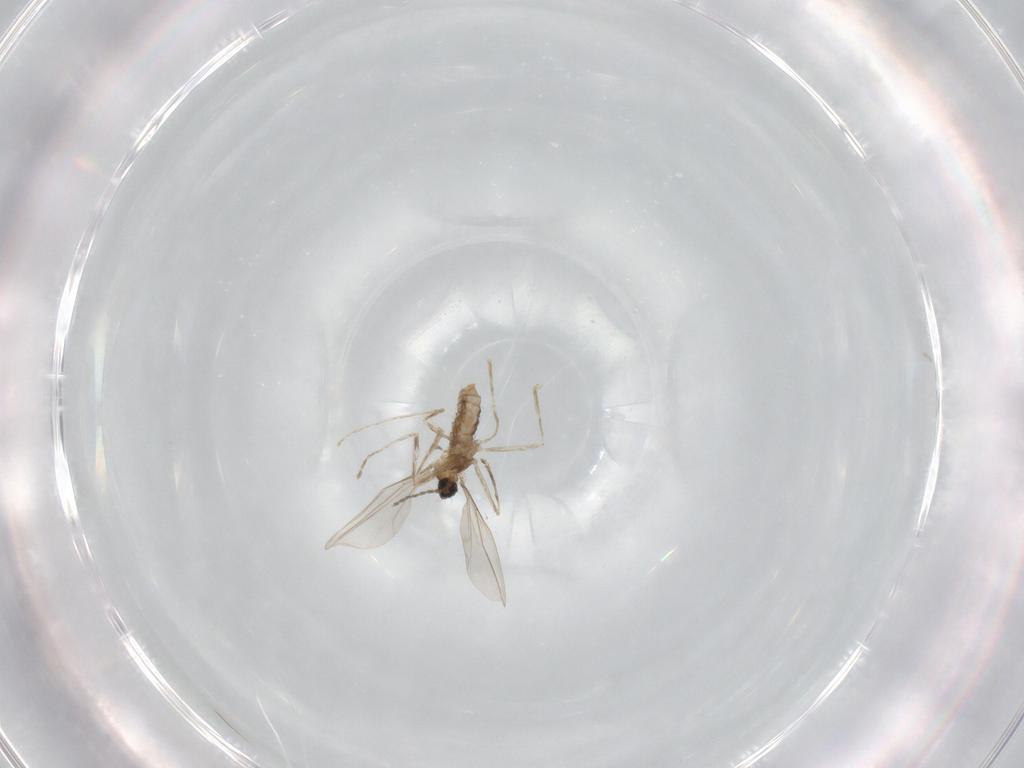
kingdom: Animalia
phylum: Arthropoda
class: Insecta
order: Diptera
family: Cecidomyiidae
